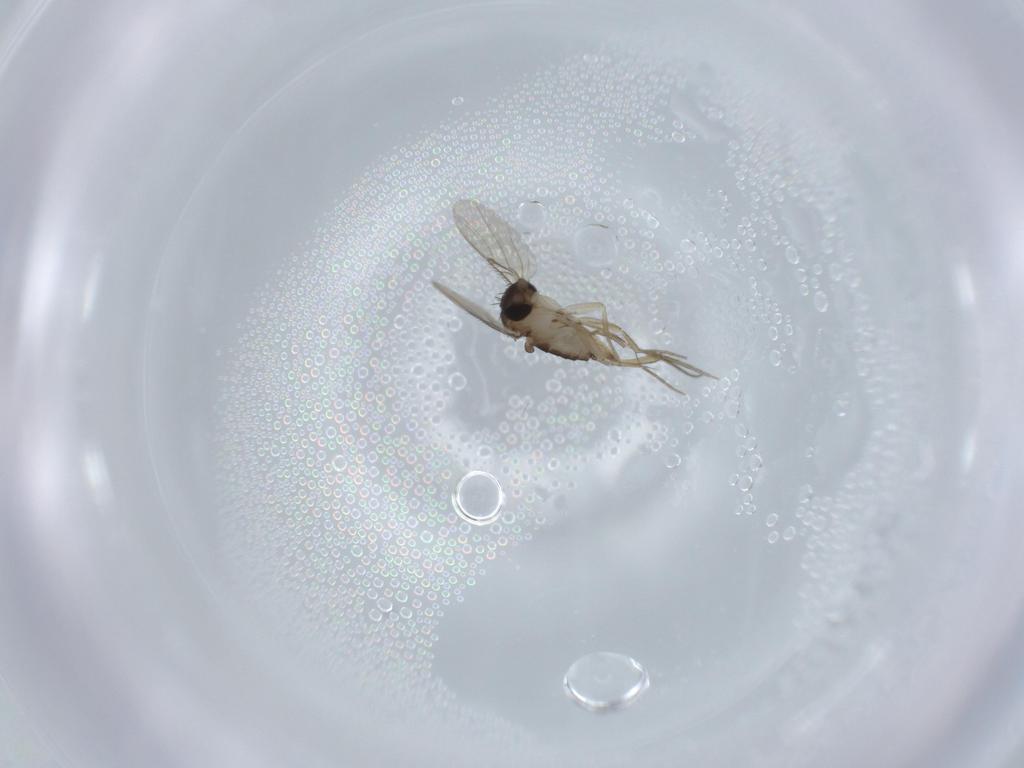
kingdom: Animalia
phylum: Arthropoda
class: Insecta
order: Diptera
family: Phoridae
